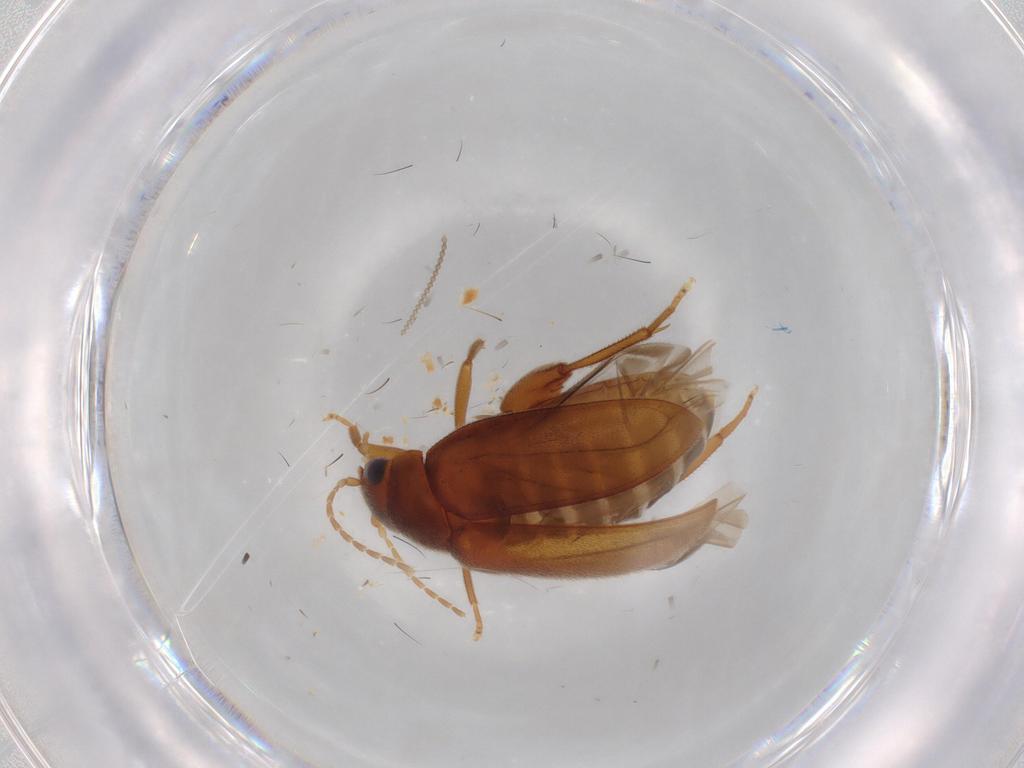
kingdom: Animalia
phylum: Arthropoda
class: Insecta
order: Coleoptera
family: Scirtidae
